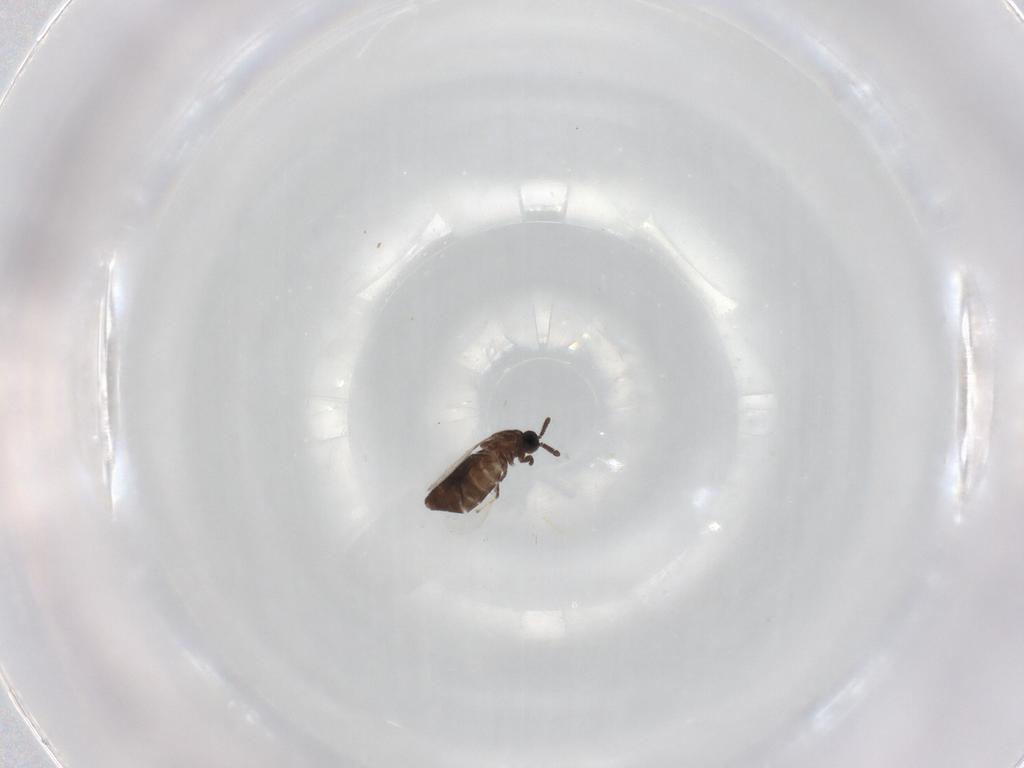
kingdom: Animalia
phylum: Arthropoda
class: Insecta
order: Diptera
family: Scatopsidae
